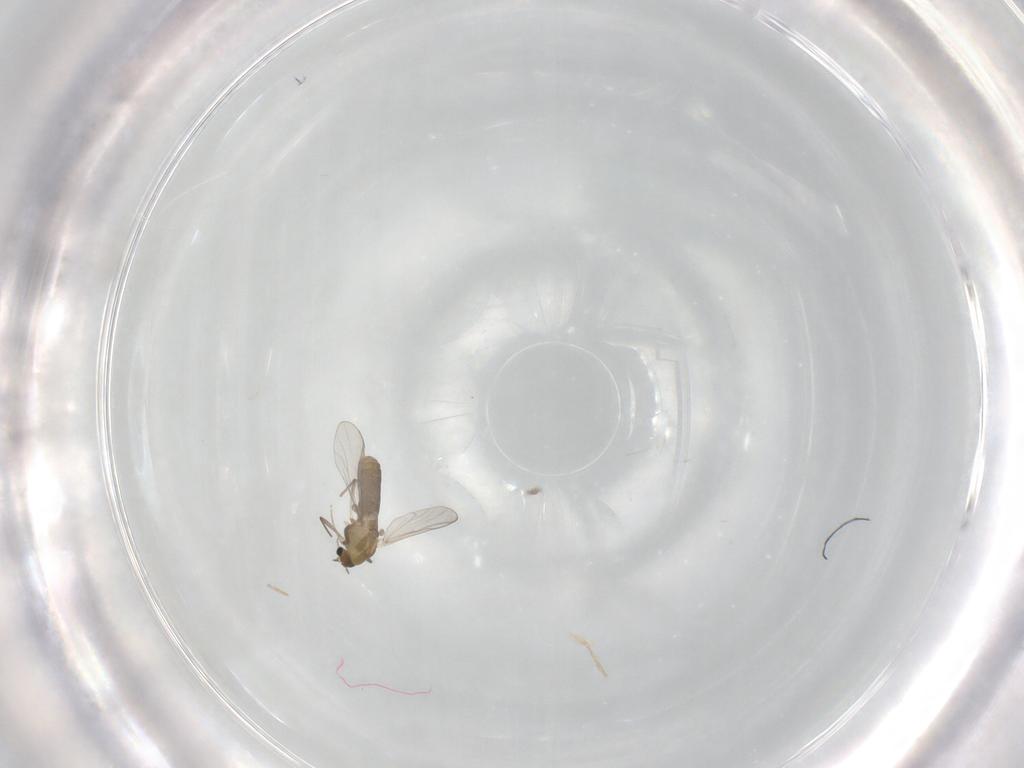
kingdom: Animalia
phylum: Arthropoda
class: Insecta
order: Diptera
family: Chironomidae
